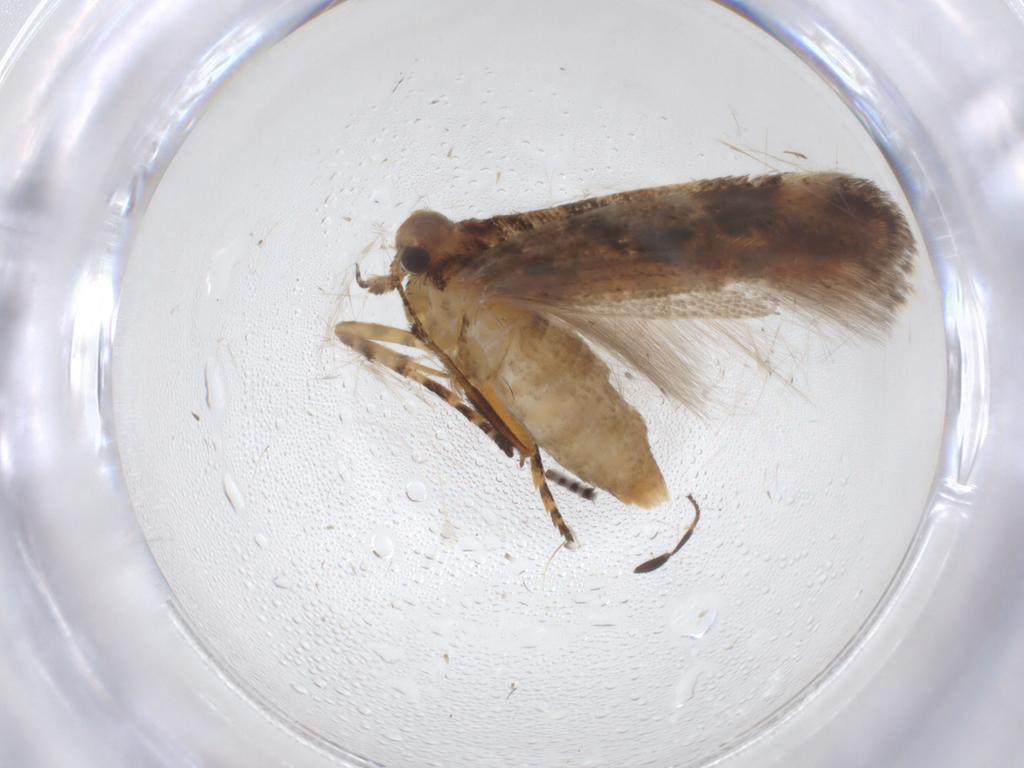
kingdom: Animalia
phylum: Arthropoda
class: Insecta
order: Lepidoptera
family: Gelechiidae
